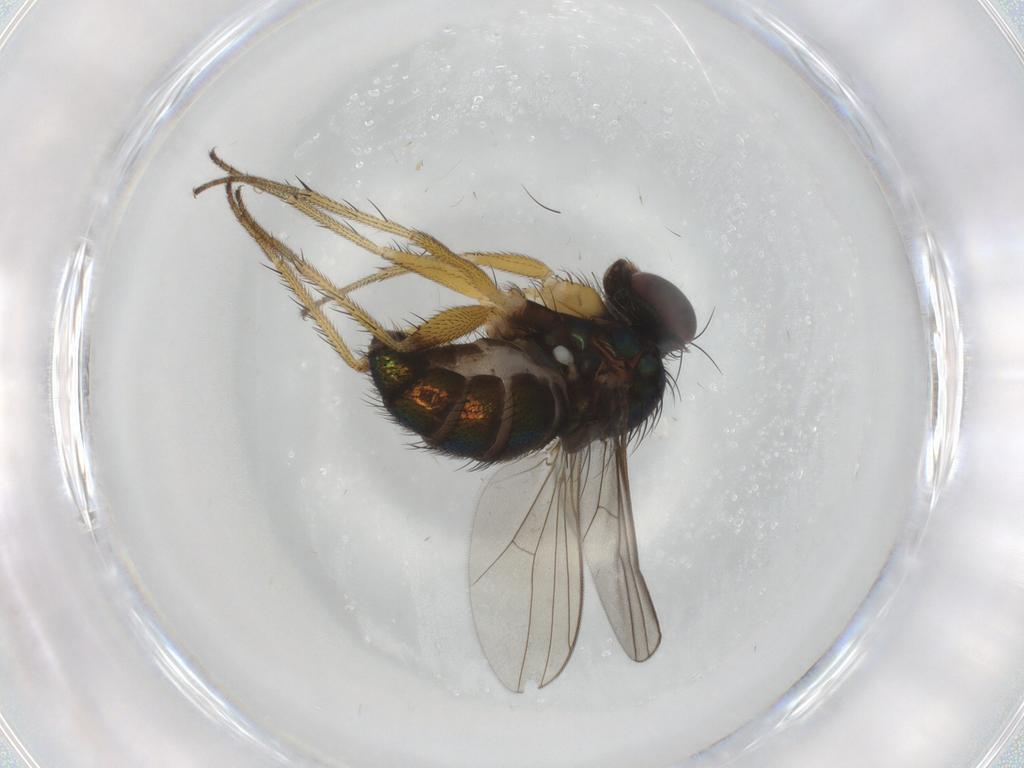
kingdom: Animalia
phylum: Arthropoda
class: Insecta
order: Diptera
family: Dolichopodidae
